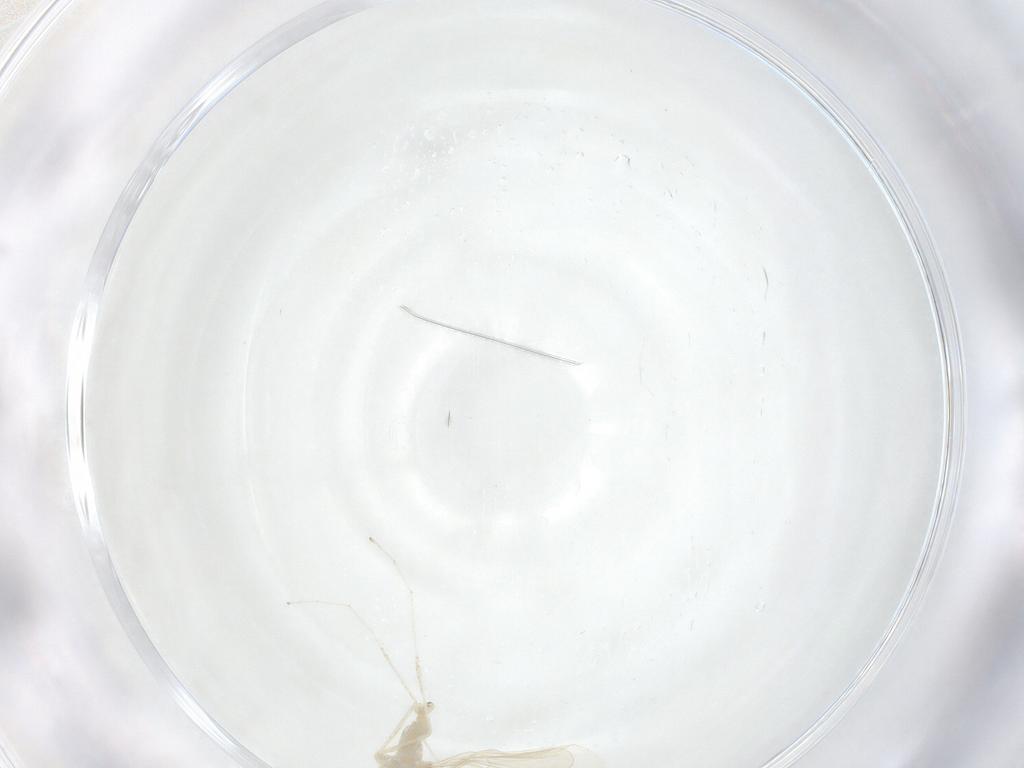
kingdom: Animalia
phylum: Arthropoda
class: Insecta
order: Diptera
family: Cecidomyiidae
